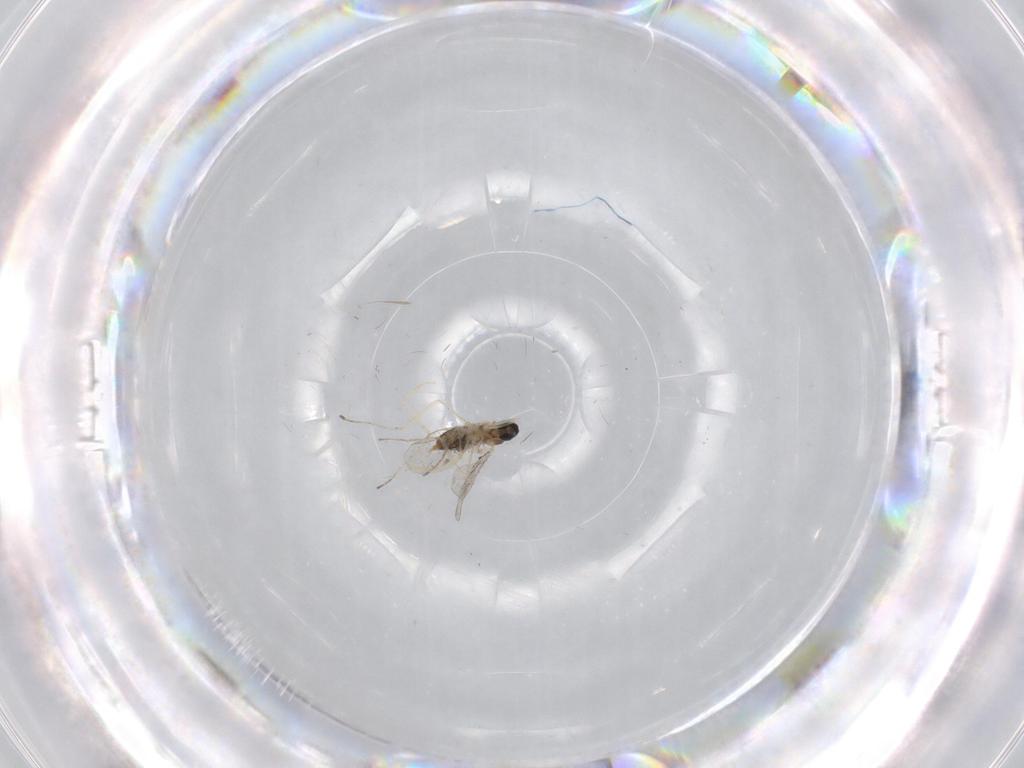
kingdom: Animalia
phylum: Arthropoda
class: Insecta
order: Diptera
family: Cecidomyiidae
